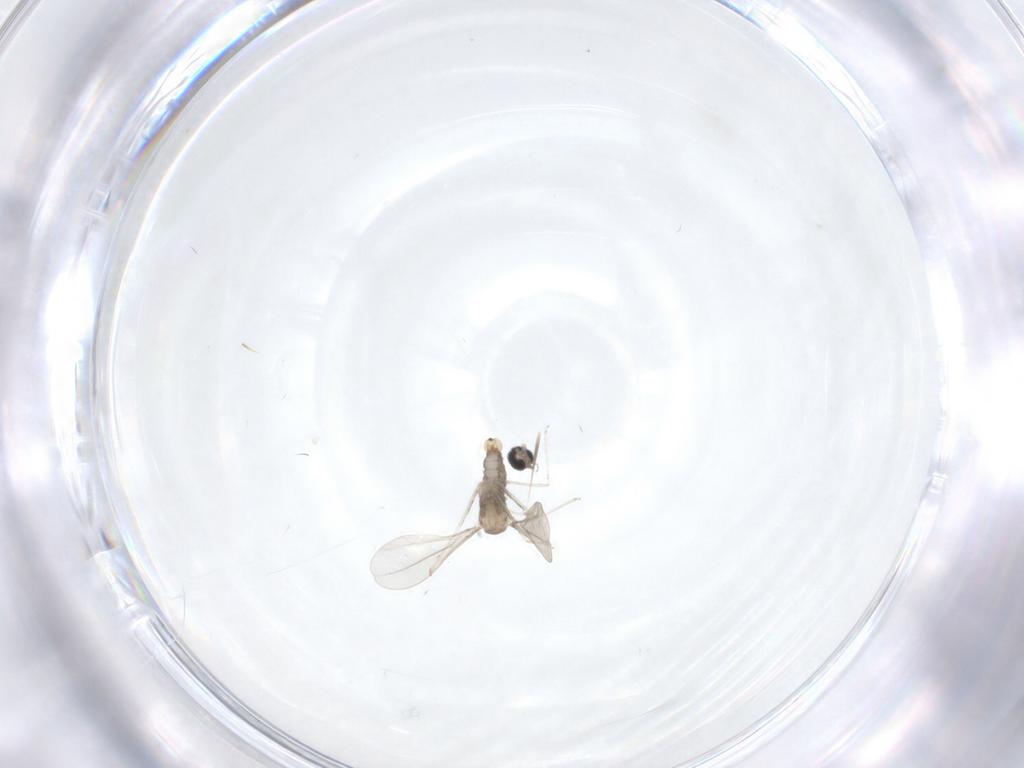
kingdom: Animalia
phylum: Arthropoda
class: Insecta
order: Diptera
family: Cecidomyiidae
